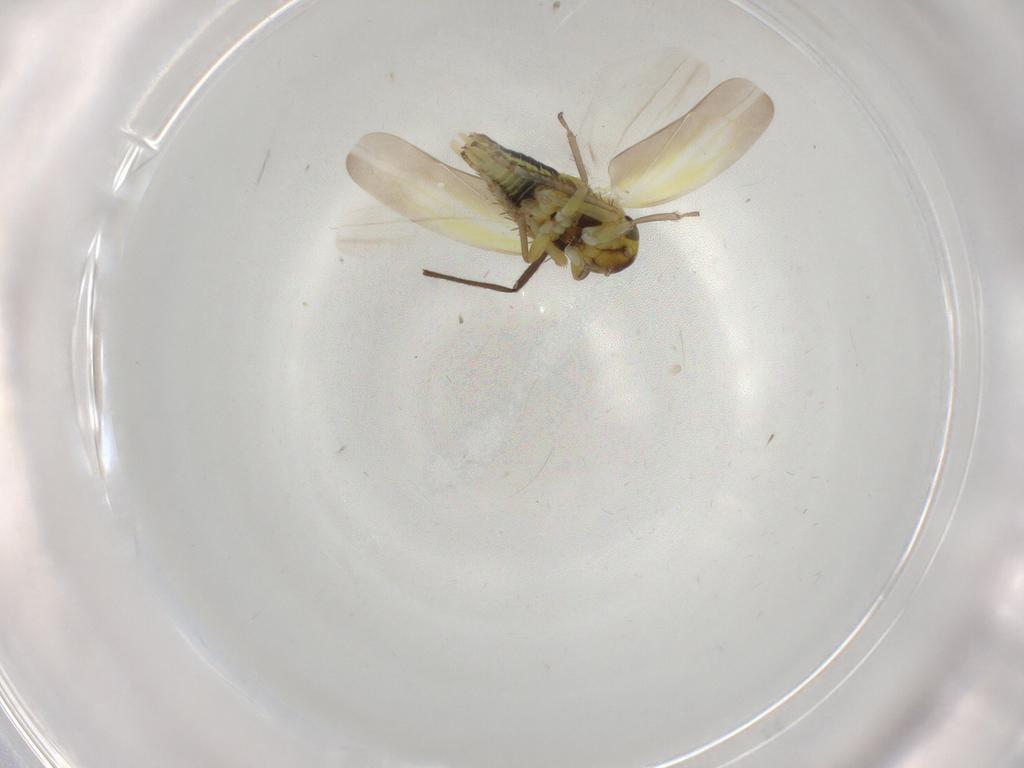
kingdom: Animalia
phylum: Arthropoda
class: Insecta
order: Hemiptera
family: Cicadellidae
